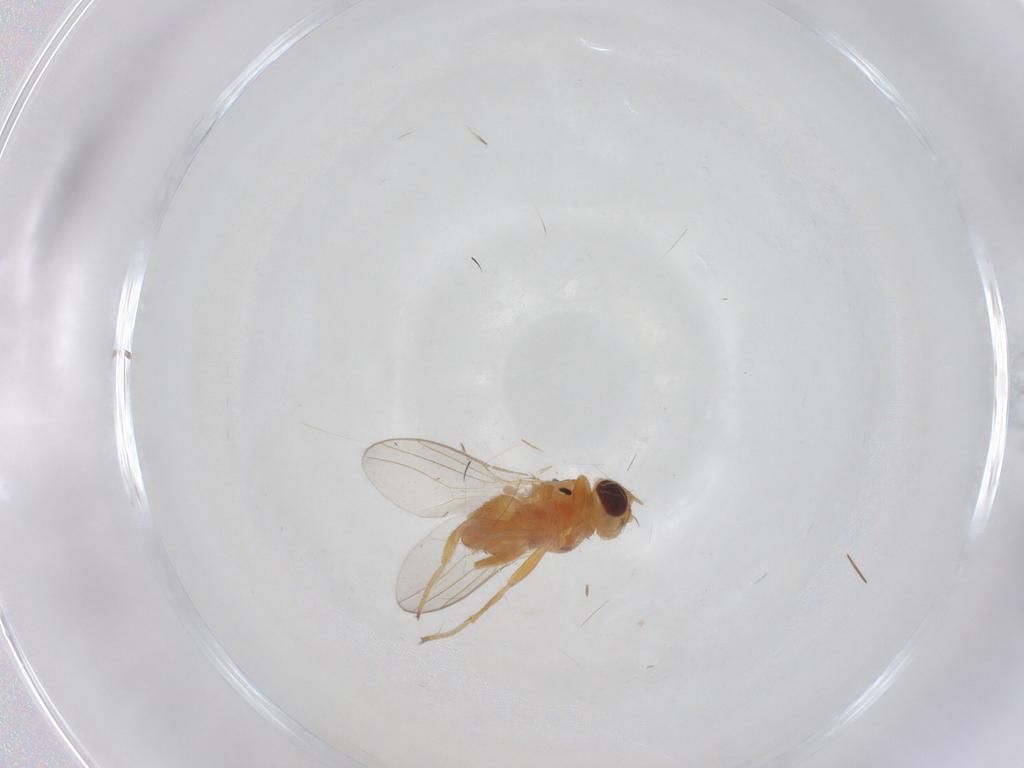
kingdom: Animalia
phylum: Arthropoda
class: Insecta
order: Diptera
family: Chloropidae
